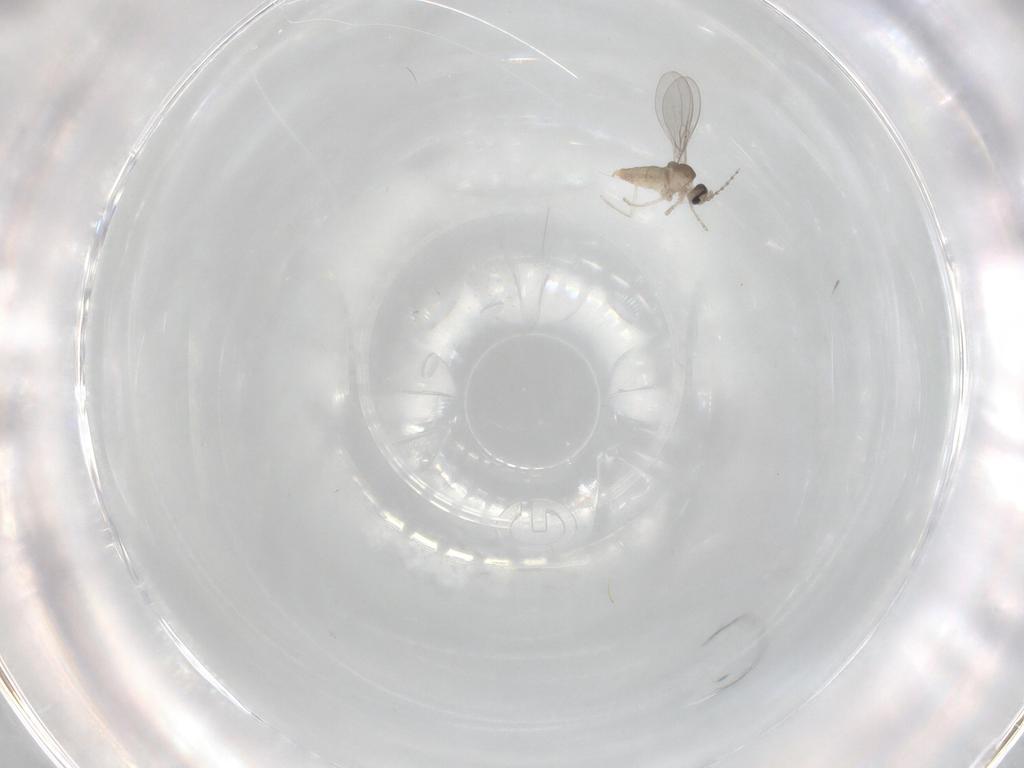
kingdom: Animalia
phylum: Arthropoda
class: Insecta
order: Diptera
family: Cecidomyiidae
